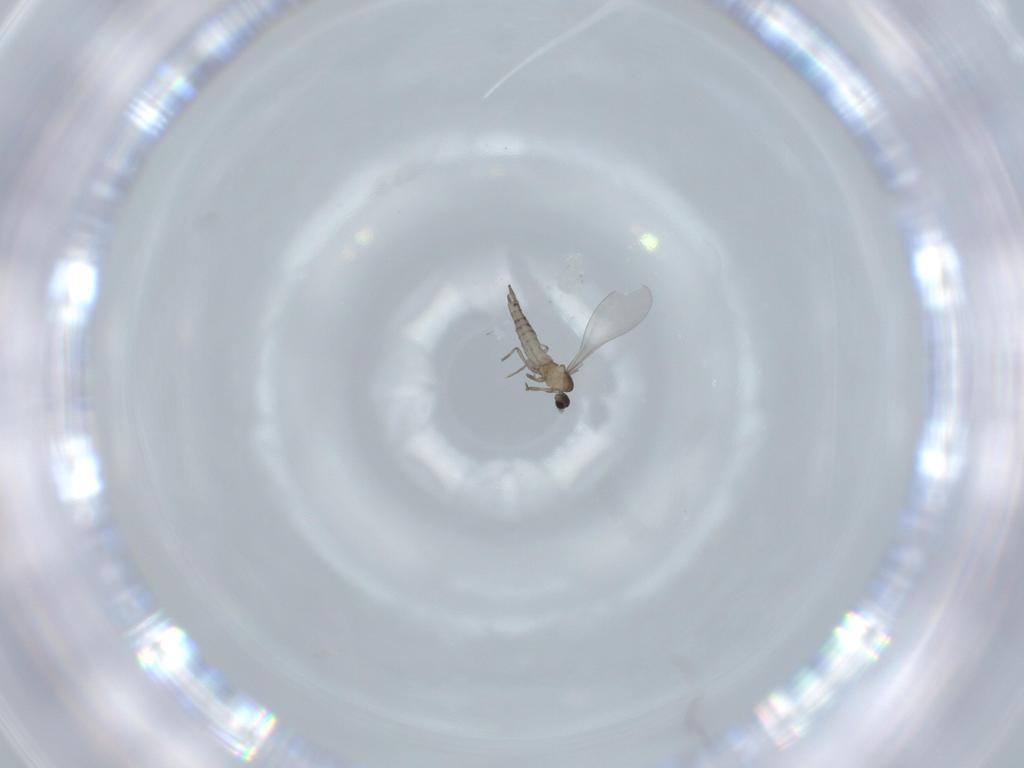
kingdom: Animalia
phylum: Arthropoda
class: Insecta
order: Diptera
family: Cecidomyiidae
